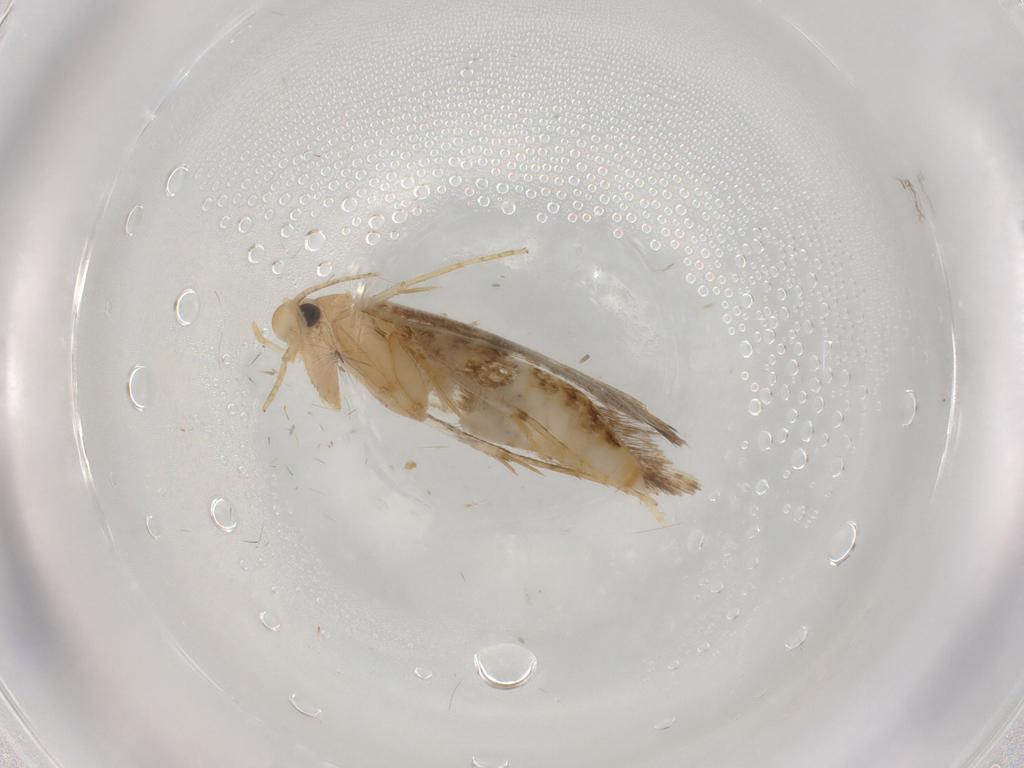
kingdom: Animalia
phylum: Arthropoda
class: Insecta
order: Lepidoptera
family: Tineidae
